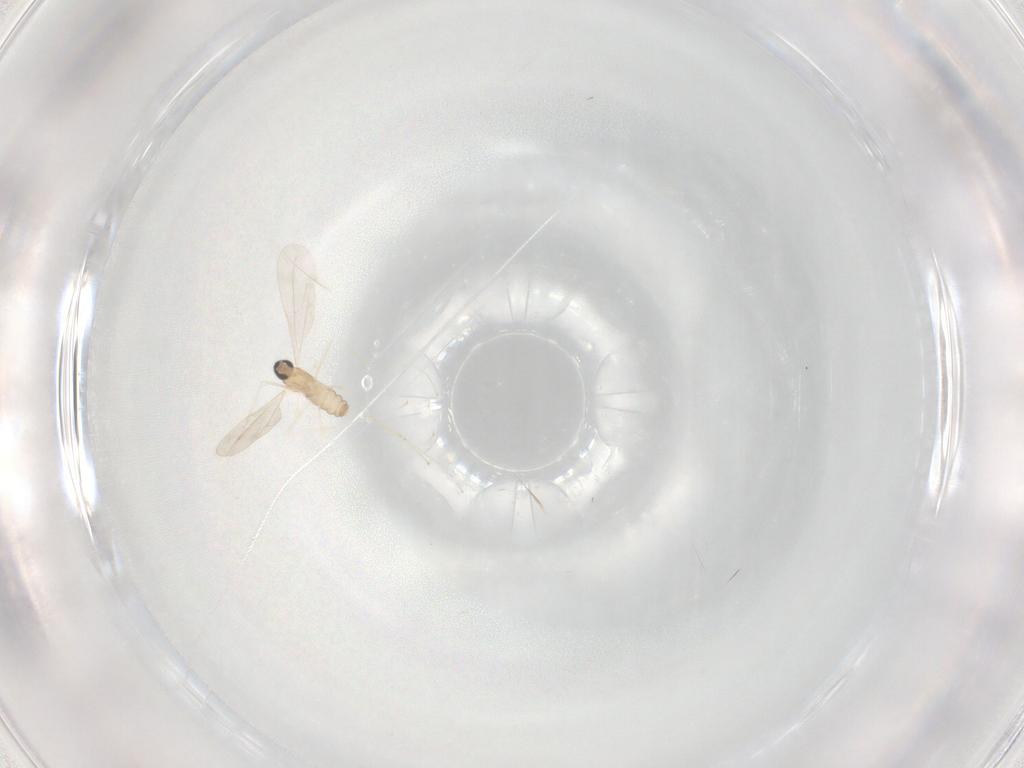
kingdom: Animalia
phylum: Arthropoda
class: Insecta
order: Diptera
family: Cecidomyiidae
